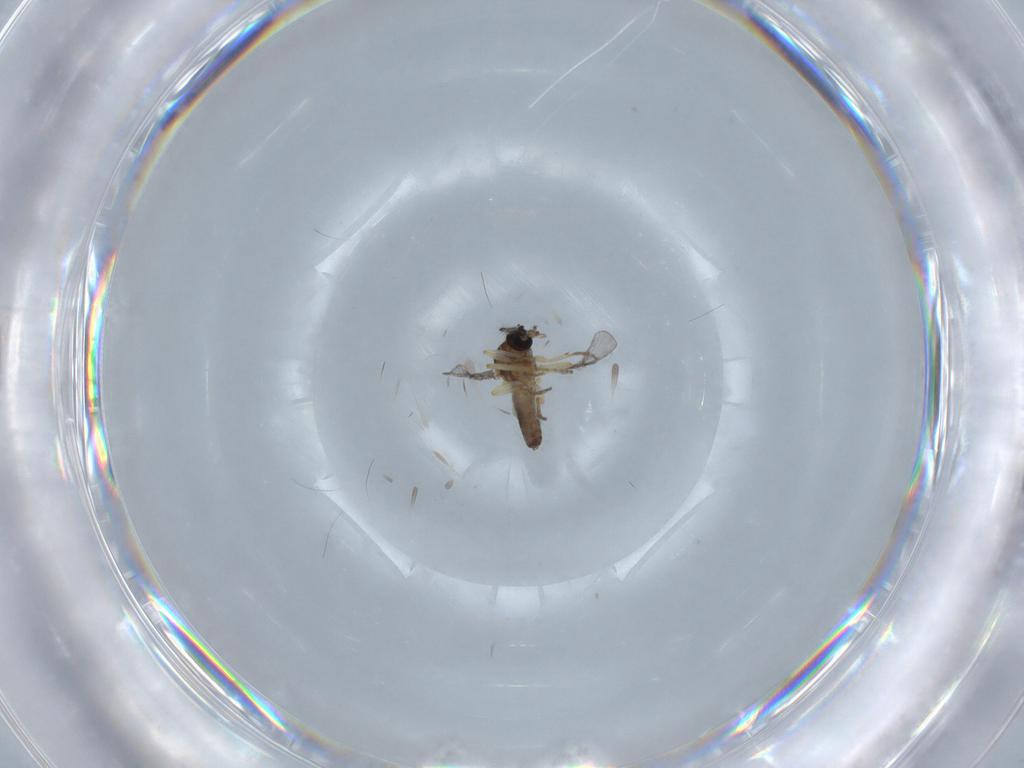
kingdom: Animalia
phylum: Arthropoda
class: Insecta
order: Diptera
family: Ceratopogonidae
